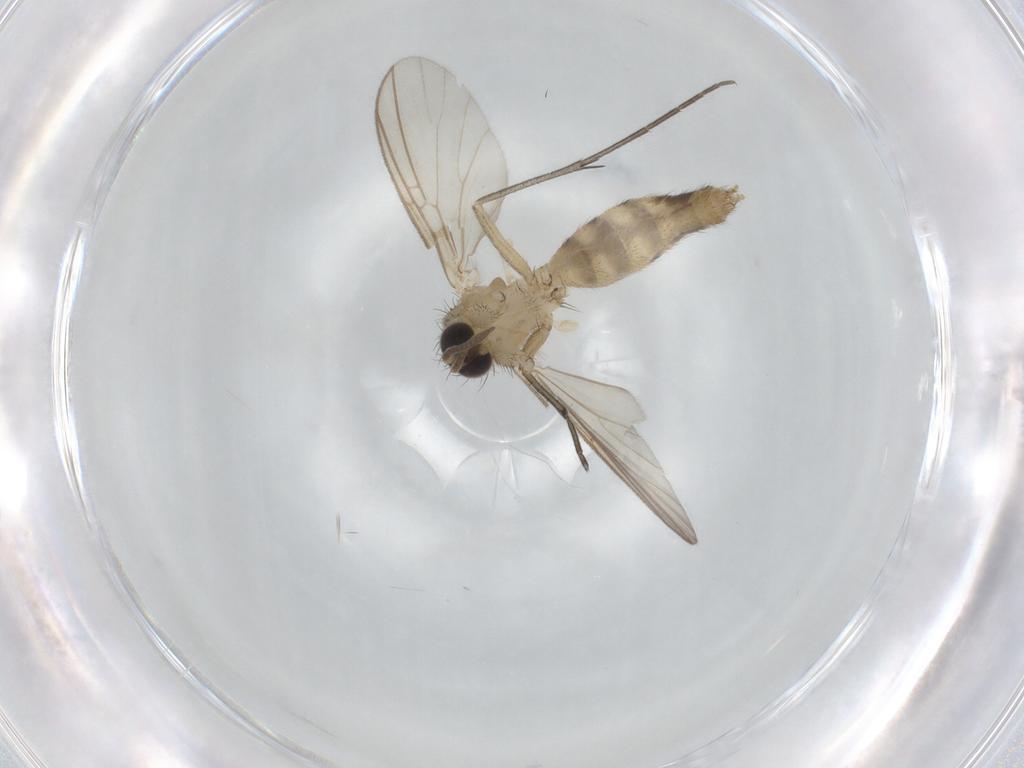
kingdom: Animalia
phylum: Arthropoda
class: Insecta
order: Diptera
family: Mycetophilidae
